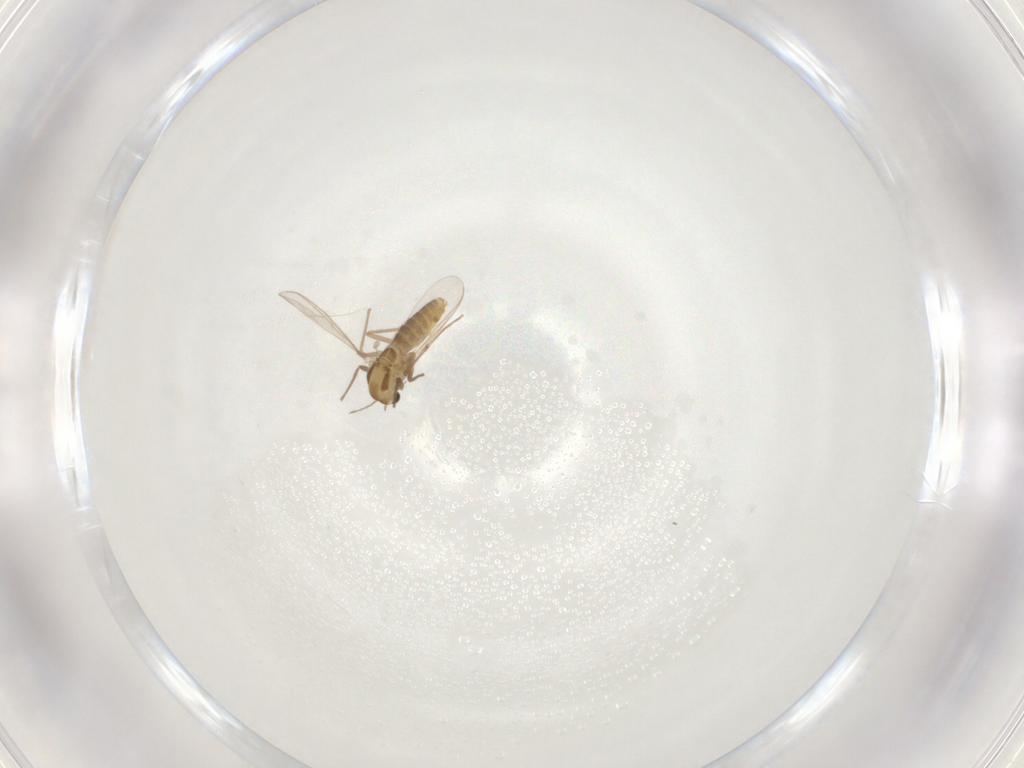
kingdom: Animalia
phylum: Arthropoda
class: Insecta
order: Diptera
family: Chironomidae
